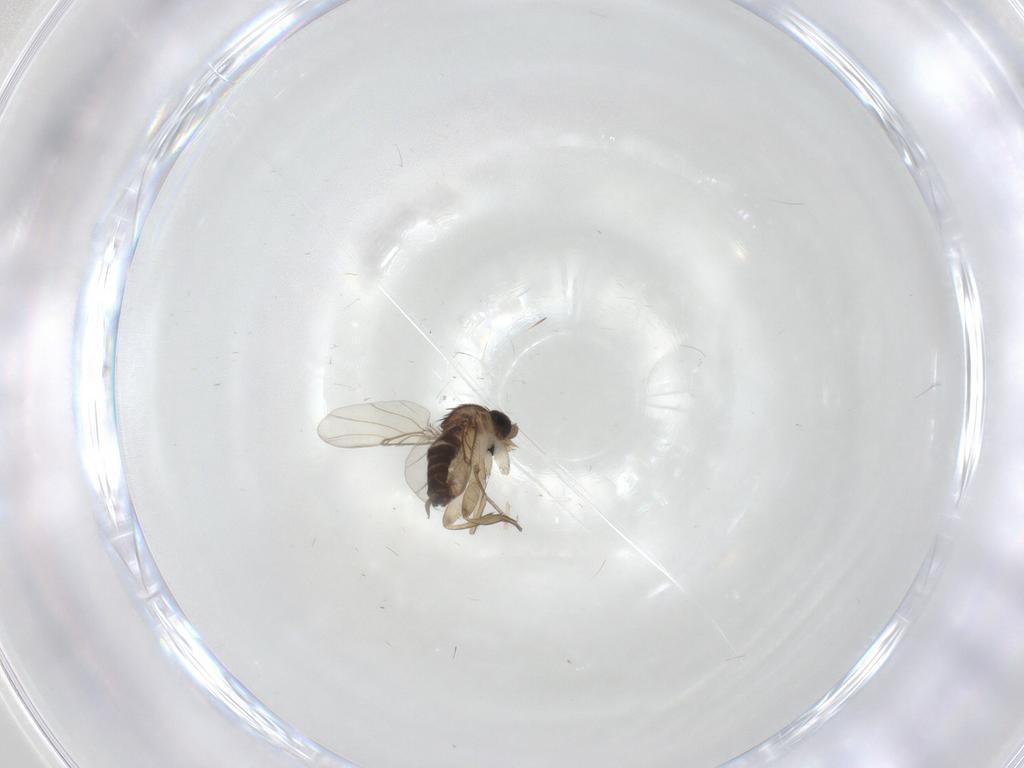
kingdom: Animalia
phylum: Arthropoda
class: Insecta
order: Diptera
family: Phoridae
